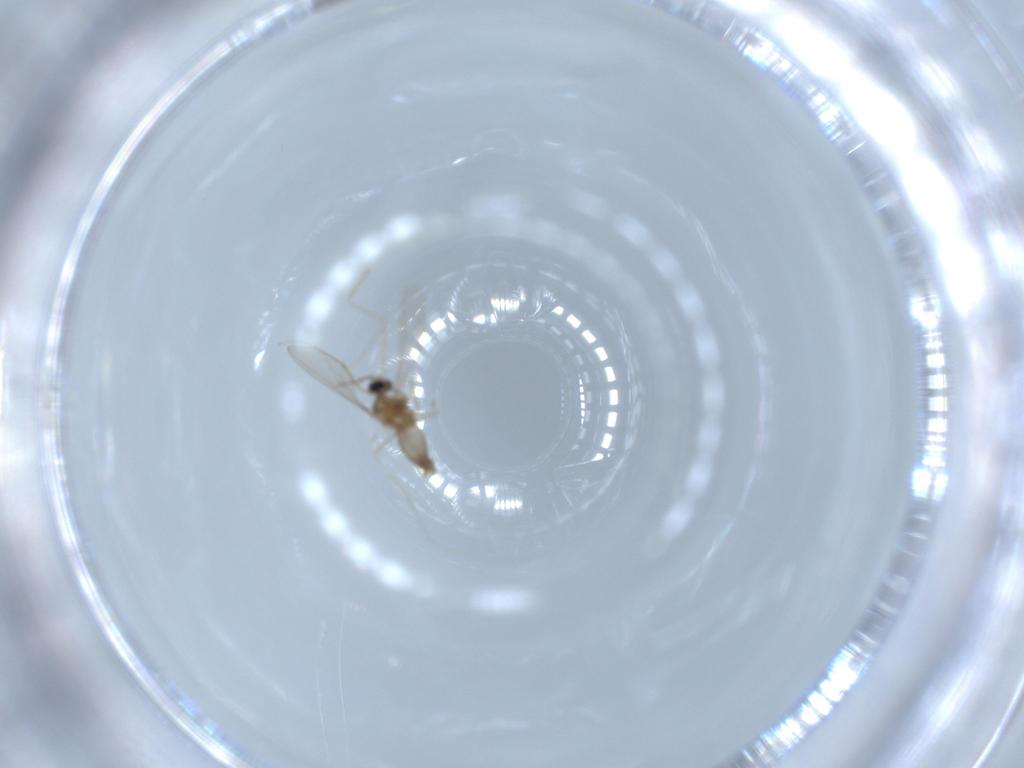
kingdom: Animalia
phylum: Arthropoda
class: Insecta
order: Diptera
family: Cecidomyiidae
